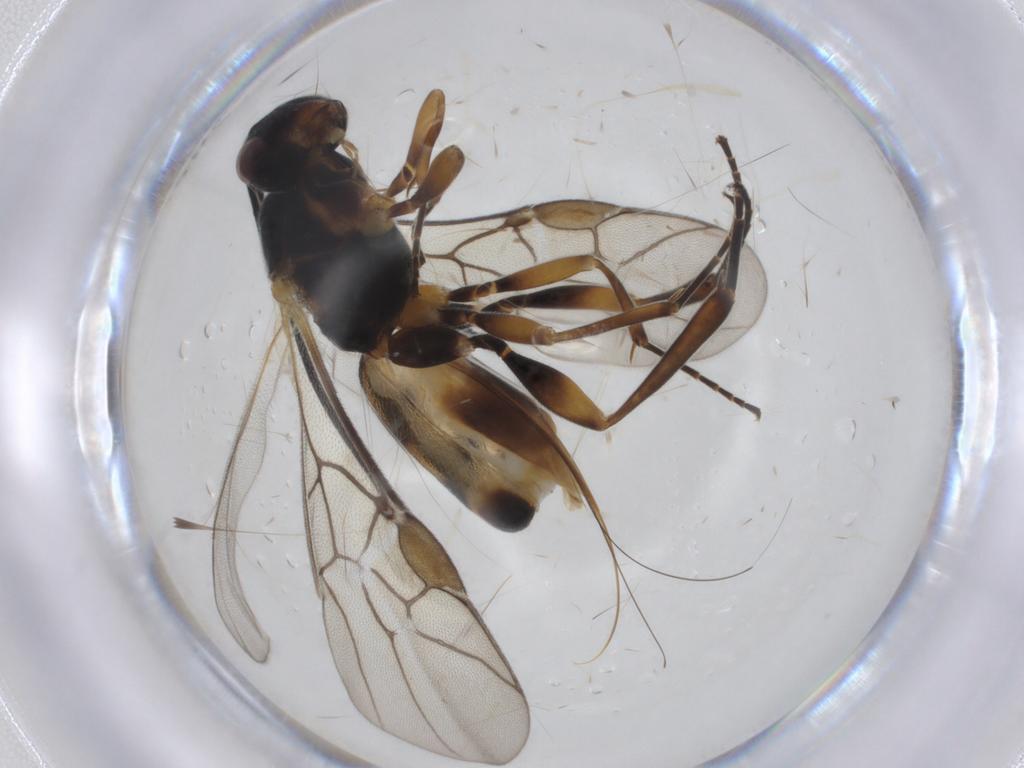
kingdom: Animalia
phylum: Arthropoda
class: Insecta
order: Hymenoptera
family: Braconidae
